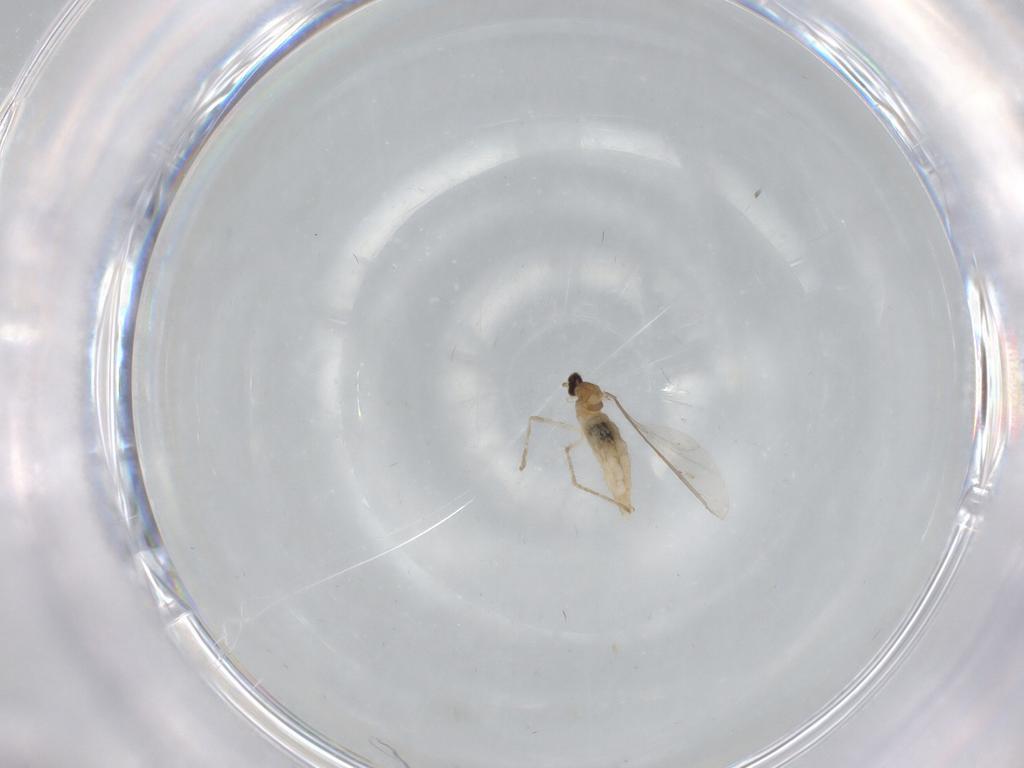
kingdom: Animalia
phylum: Arthropoda
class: Insecta
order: Diptera
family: Cecidomyiidae
